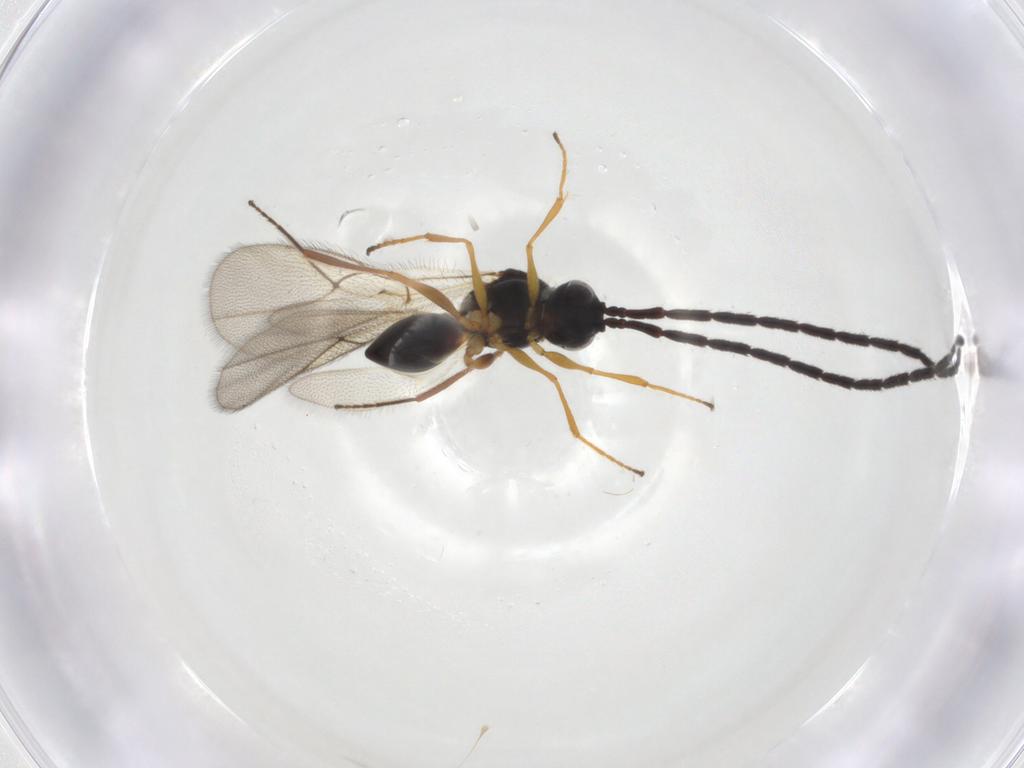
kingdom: Animalia
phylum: Arthropoda
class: Insecta
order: Hymenoptera
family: Figitidae
